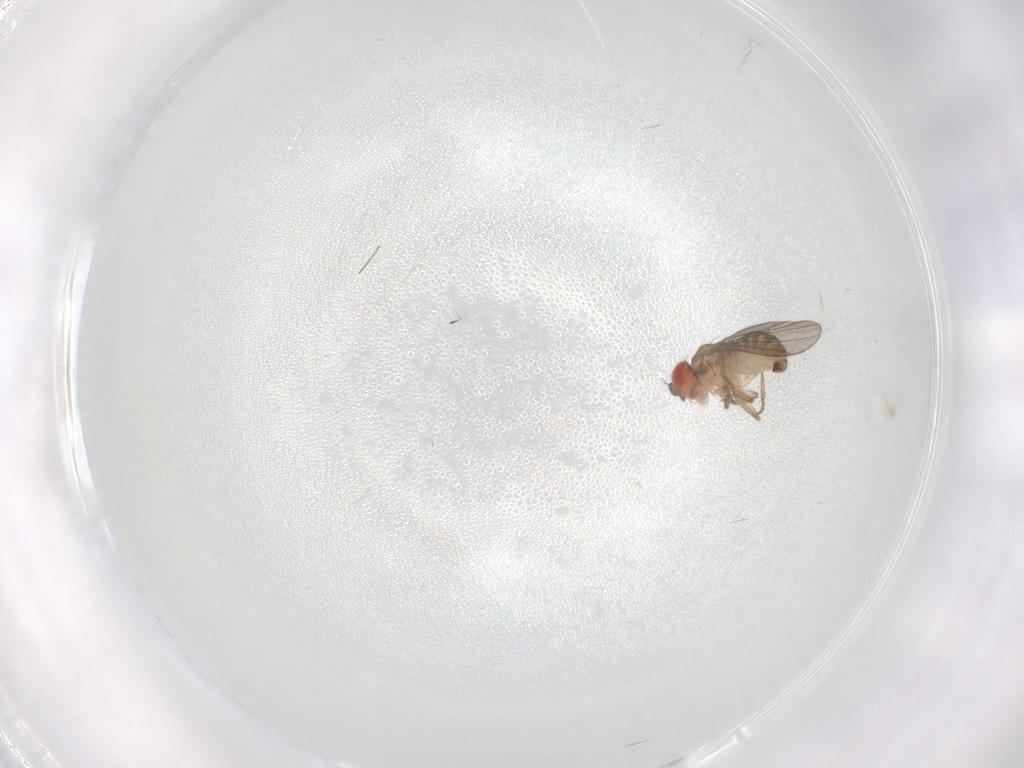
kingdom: Animalia
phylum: Arthropoda
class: Insecta
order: Diptera
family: Drosophilidae
